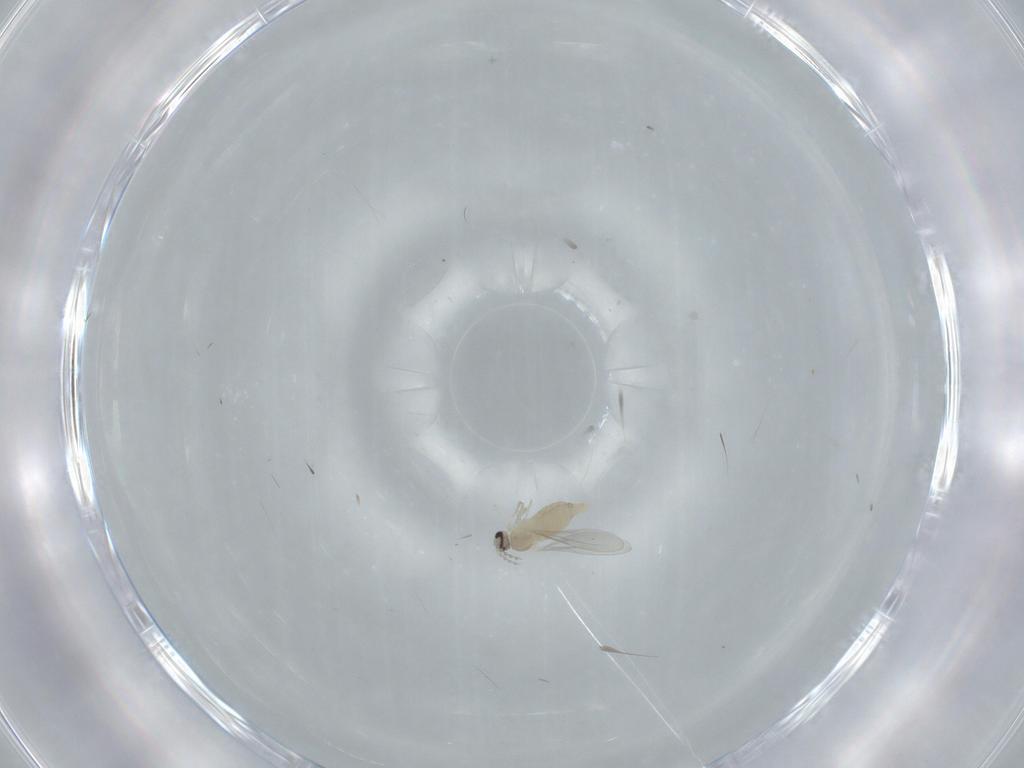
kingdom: Animalia
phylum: Arthropoda
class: Insecta
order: Diptera
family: Cecidomyiidae
